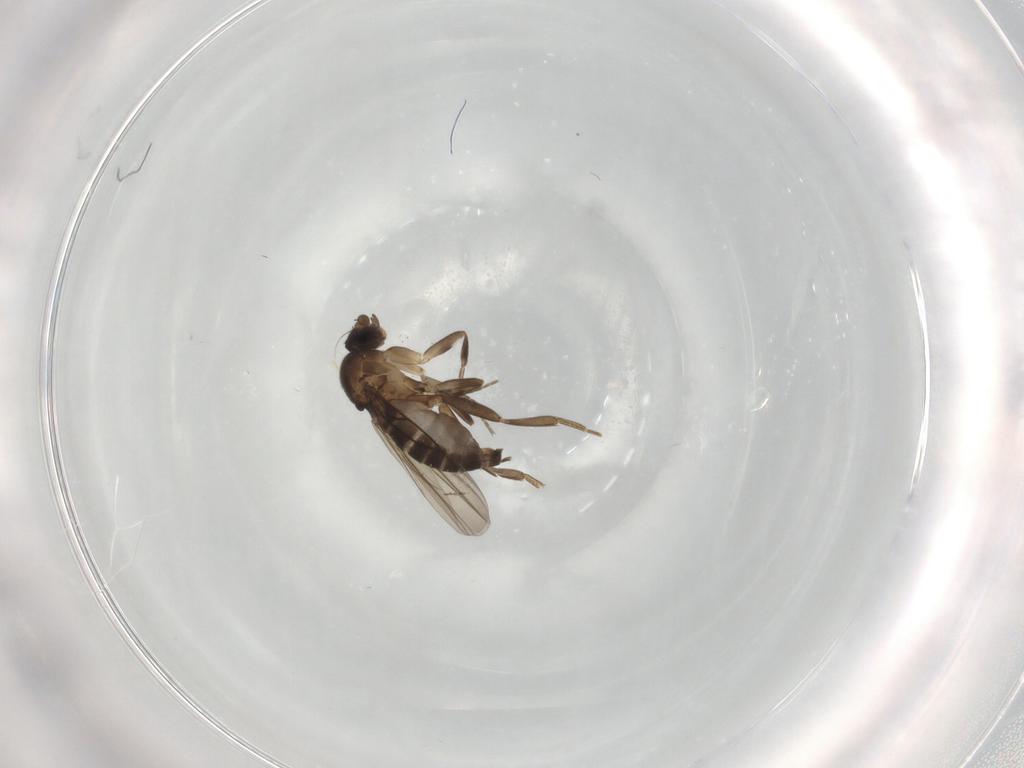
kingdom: Animalia
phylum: Arthropoda
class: Insecta
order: Diptera
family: Phoridae
